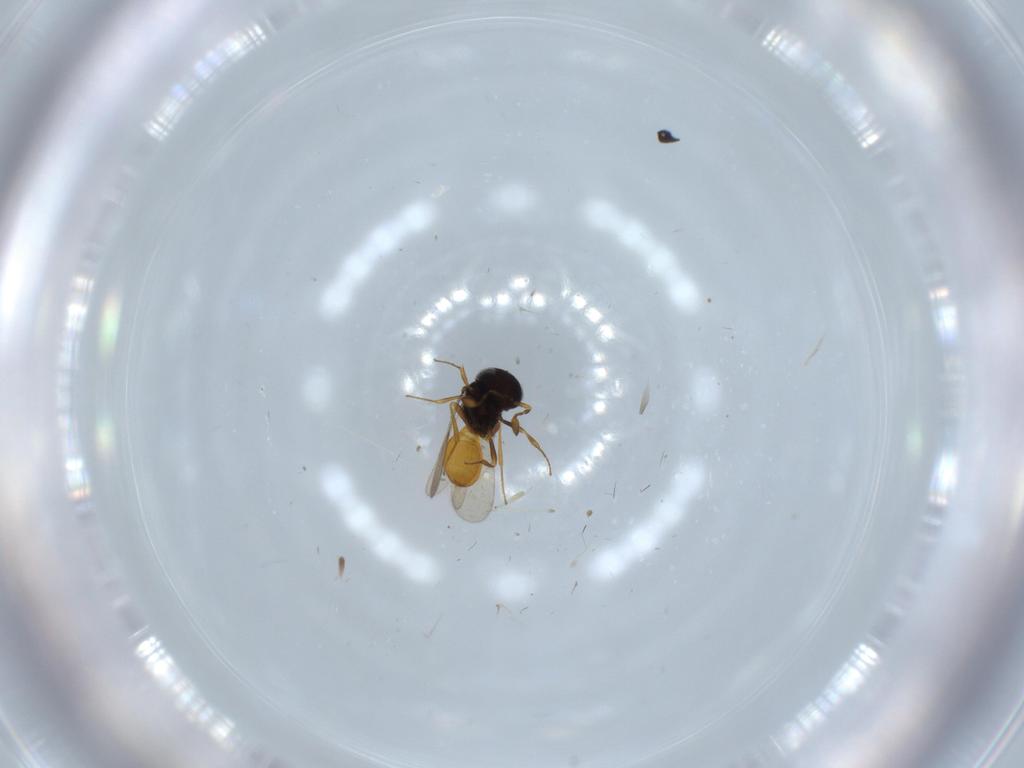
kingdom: Animalia
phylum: Arthropoda
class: Insecta
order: Hymenoptera
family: Scelionidae
